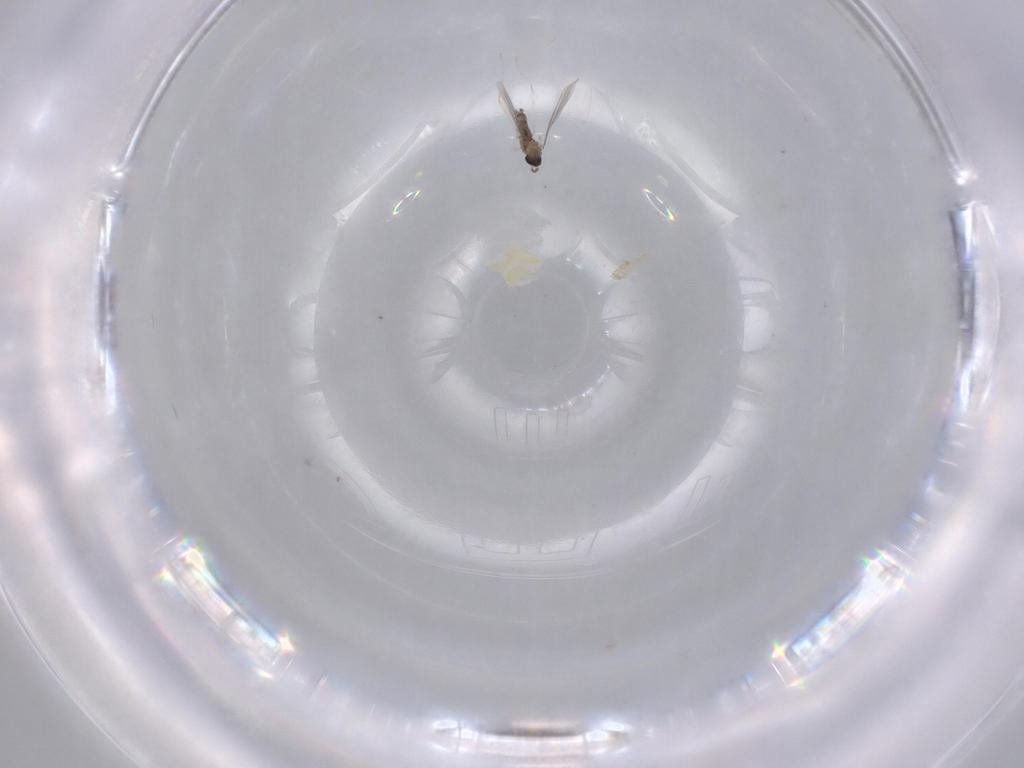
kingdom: Animalia
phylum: Arthropoda
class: Insecta
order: Diptera
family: Cecidomyiidae
